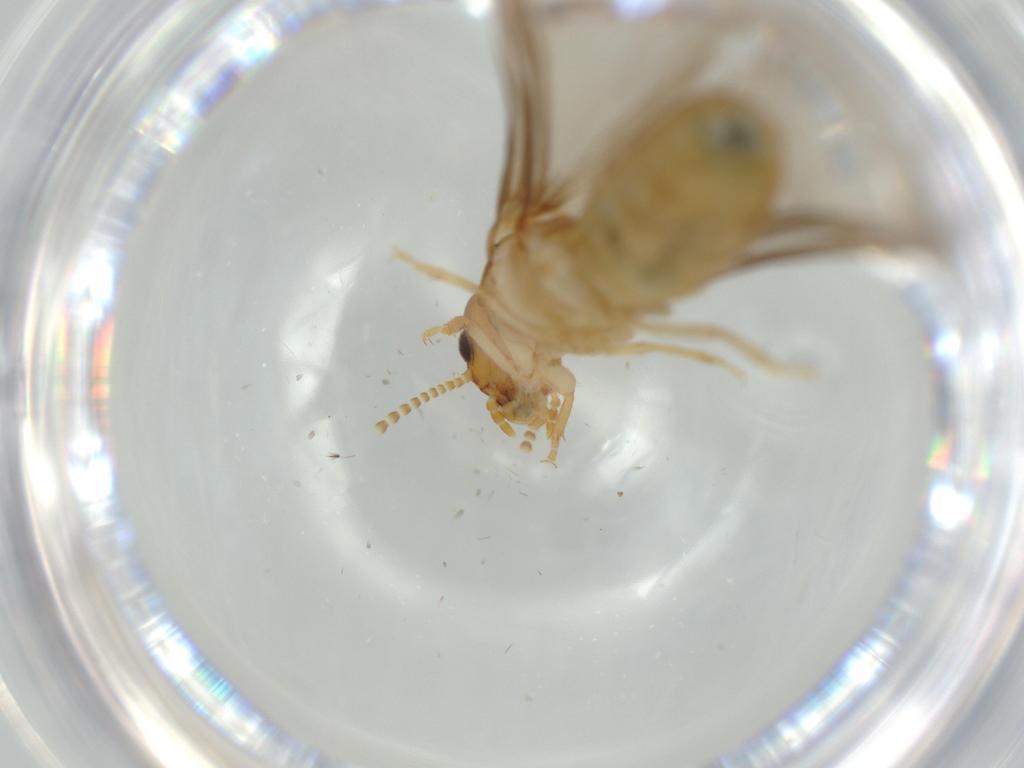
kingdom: Animalia
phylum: Arthropoda
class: Insecta
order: Blattodea
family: Kalotermitidae
